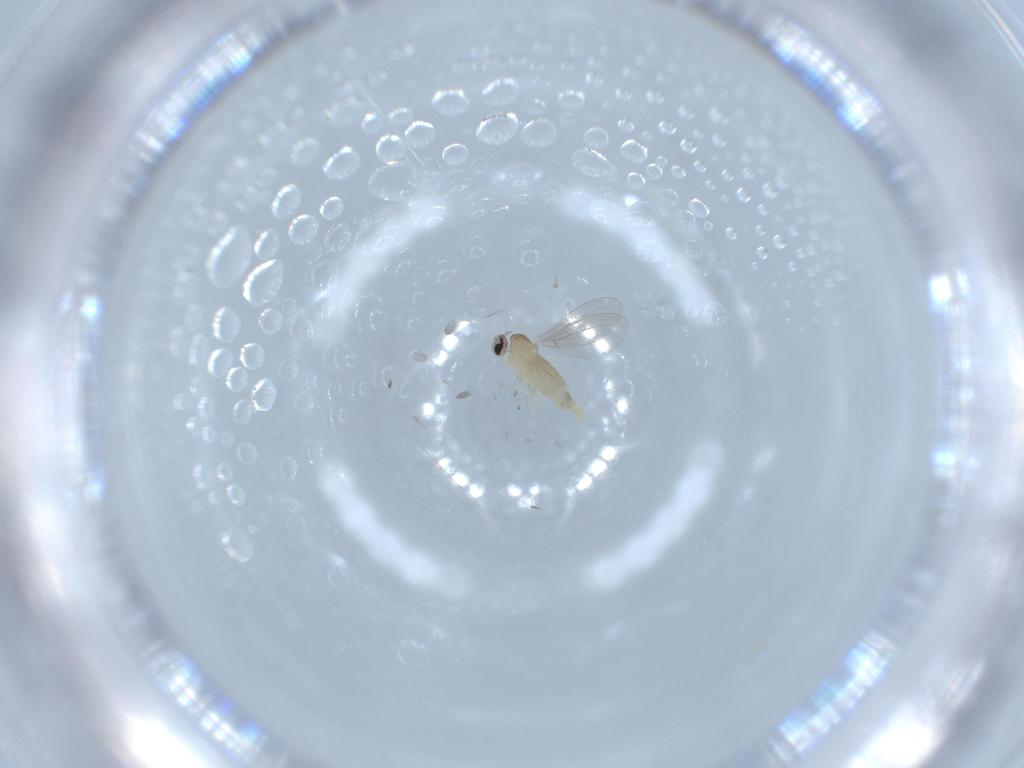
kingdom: Animalia
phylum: Arthropoda
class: Insecta
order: Diptera
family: Cecidomyiidae
